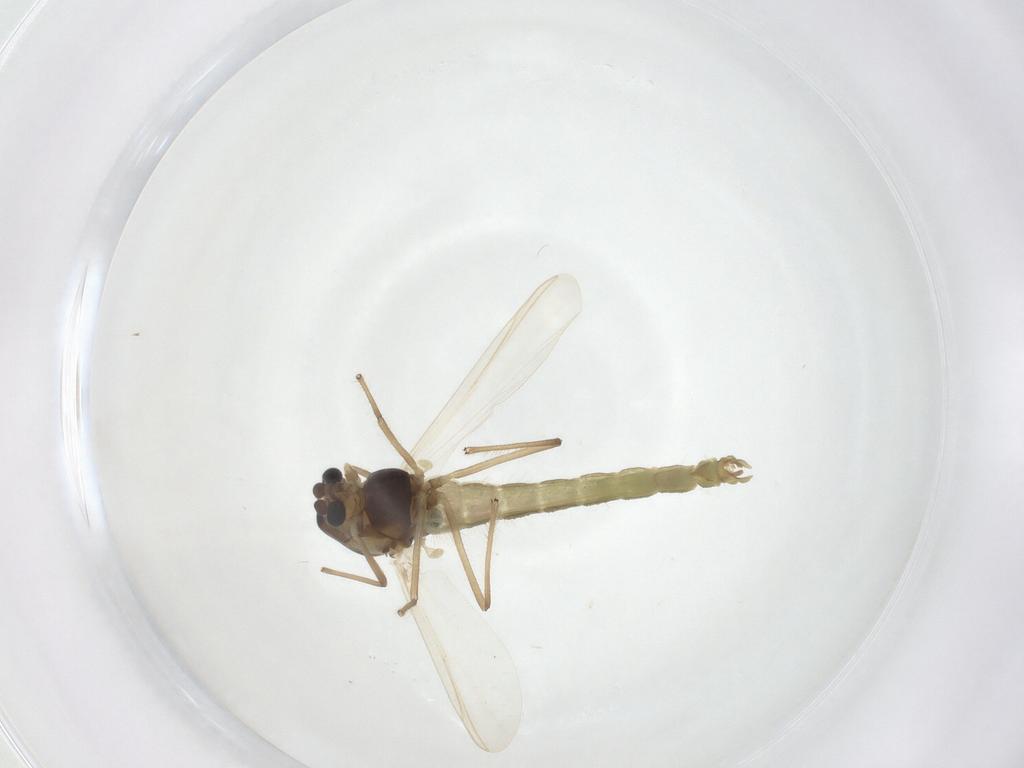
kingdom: Animalia
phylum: Arthropoda
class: Insecta
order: Diptera
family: Chironomidae
